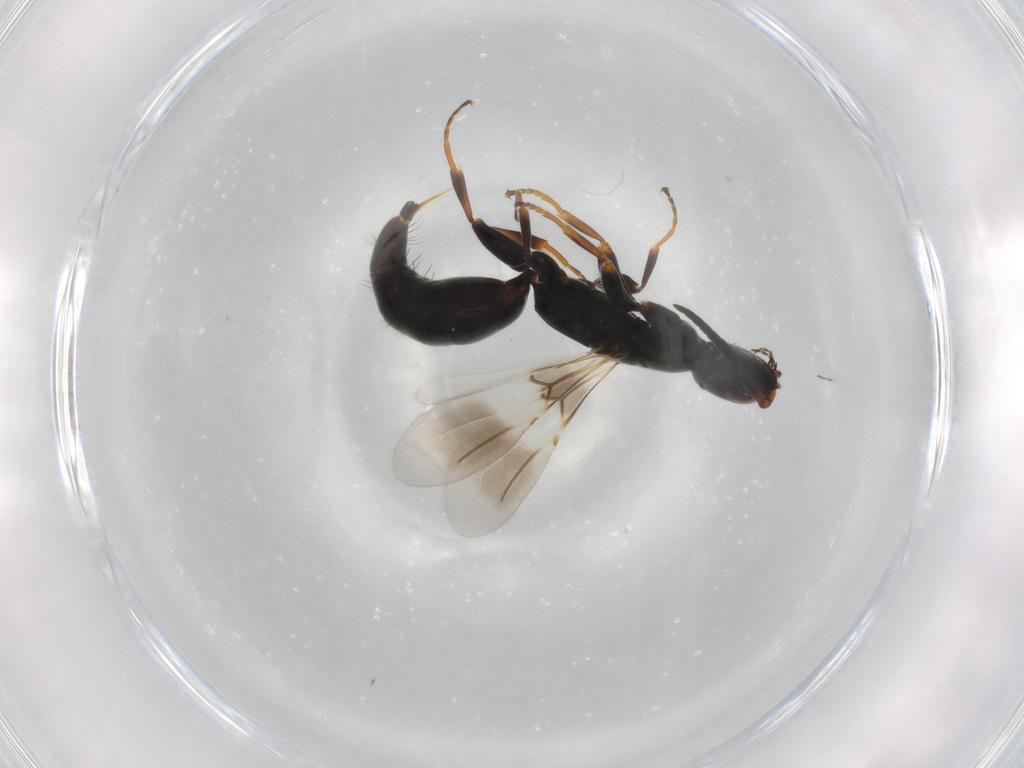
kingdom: Animalia
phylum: Arthropoda
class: Insecta
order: Hymenoptera
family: Bethylidae
